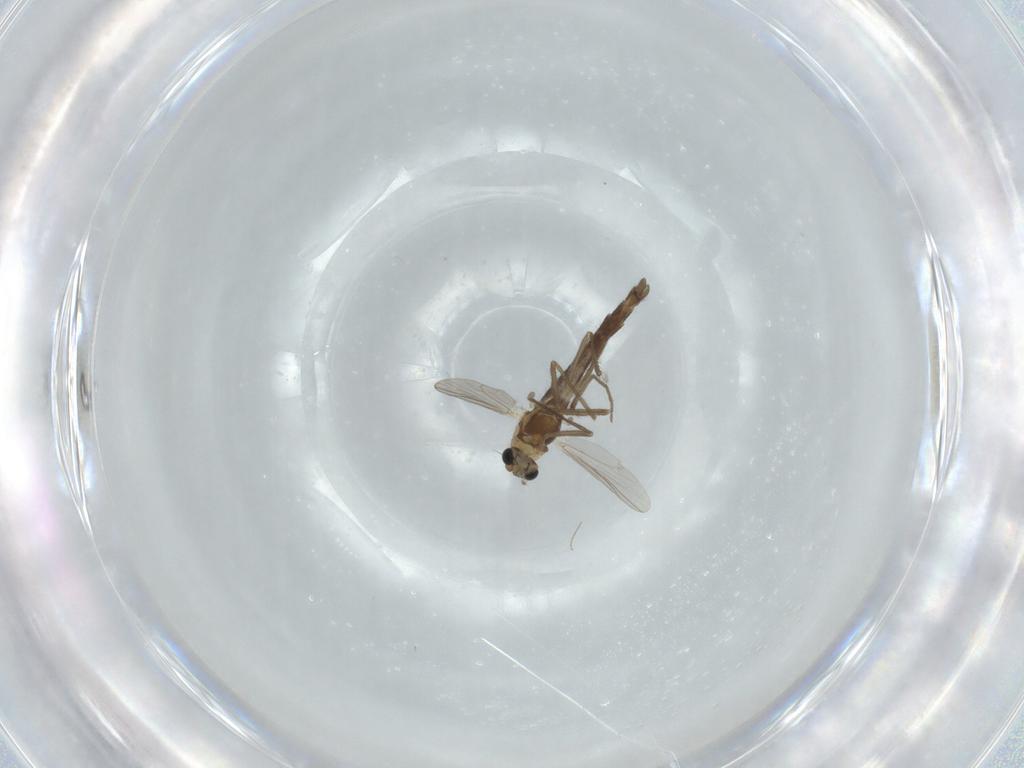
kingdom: Animalia
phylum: Arthropoda
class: Insecta
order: Diptera
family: Chironomidae
